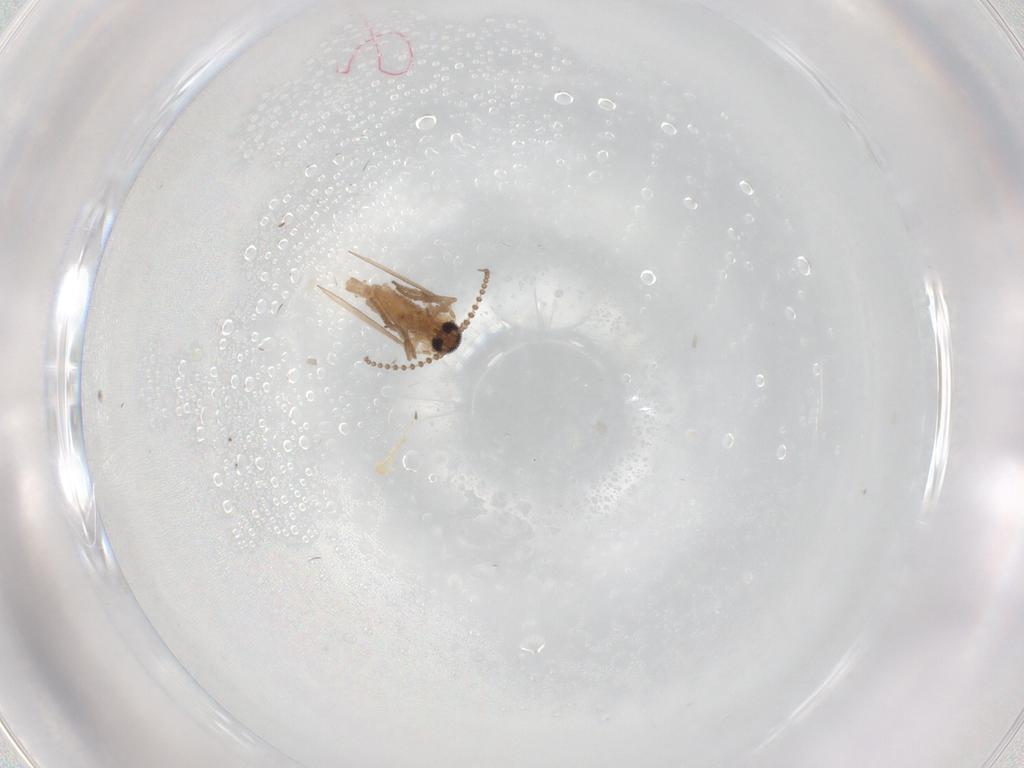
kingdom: Animalia
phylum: Arthropoda
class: Insecta
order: Diptera
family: Psychodidae
